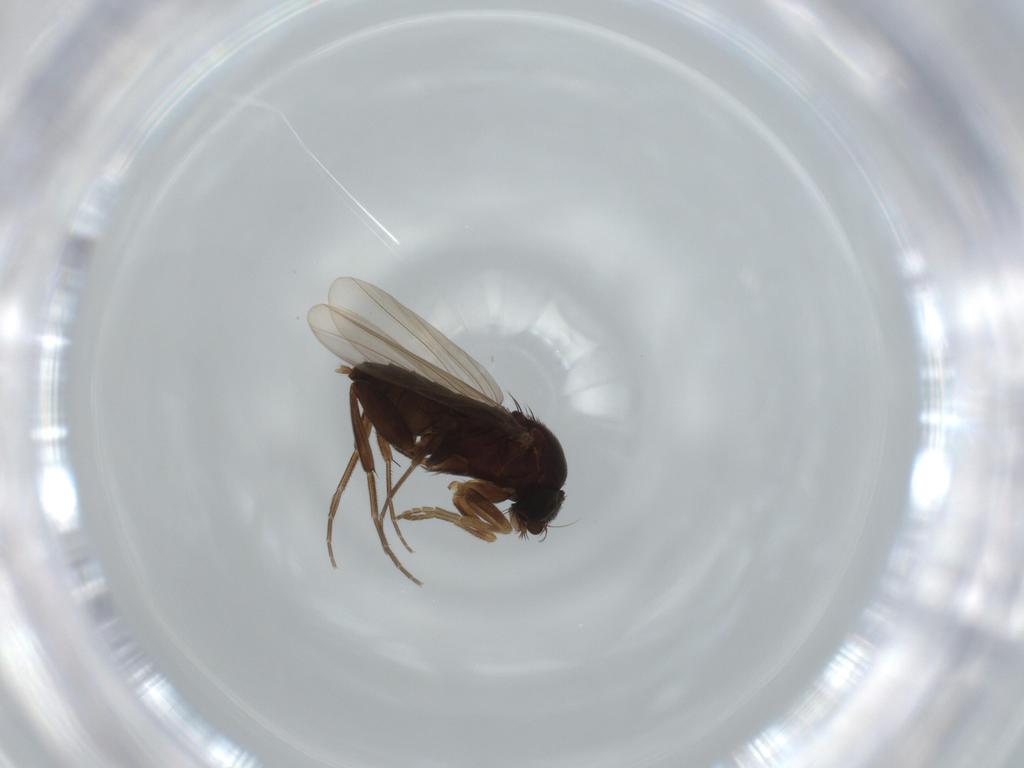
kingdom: Animalia
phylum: Arthropoda
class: Insecta
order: Diptera
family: Phoridae
